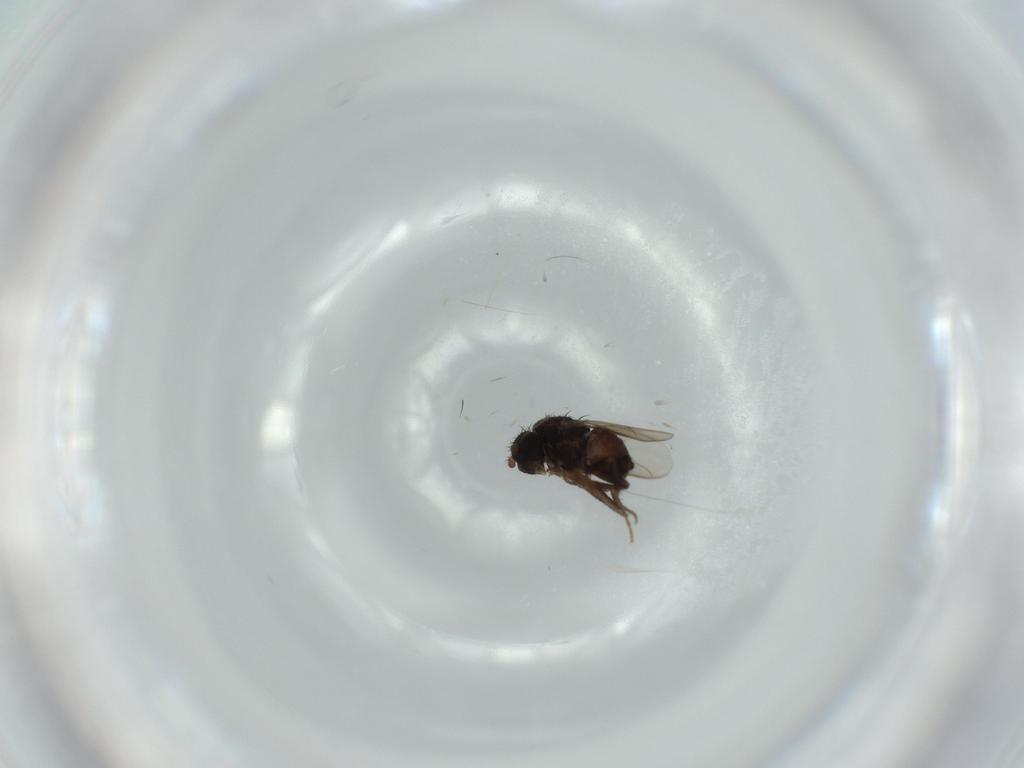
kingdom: Animalia
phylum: Arthropoda
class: Insecta
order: Diptera
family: Sphaeroceridae
